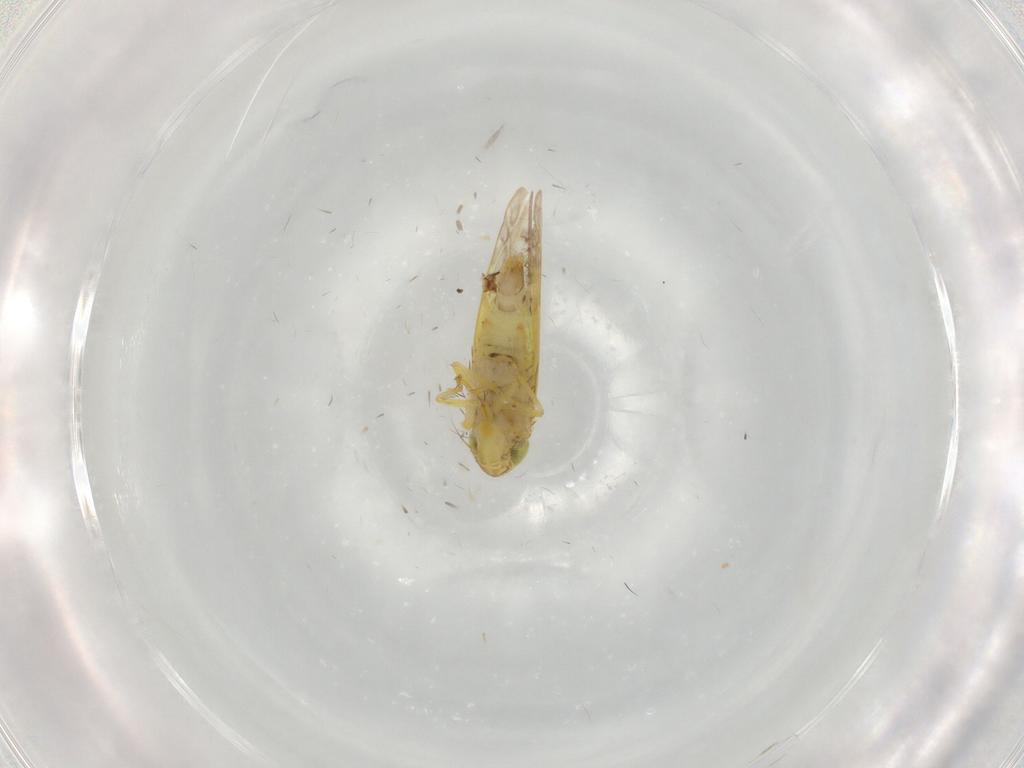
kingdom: Animalia
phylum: Arthropoda
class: Insecta
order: Hemiptera
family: Cicadellidae
